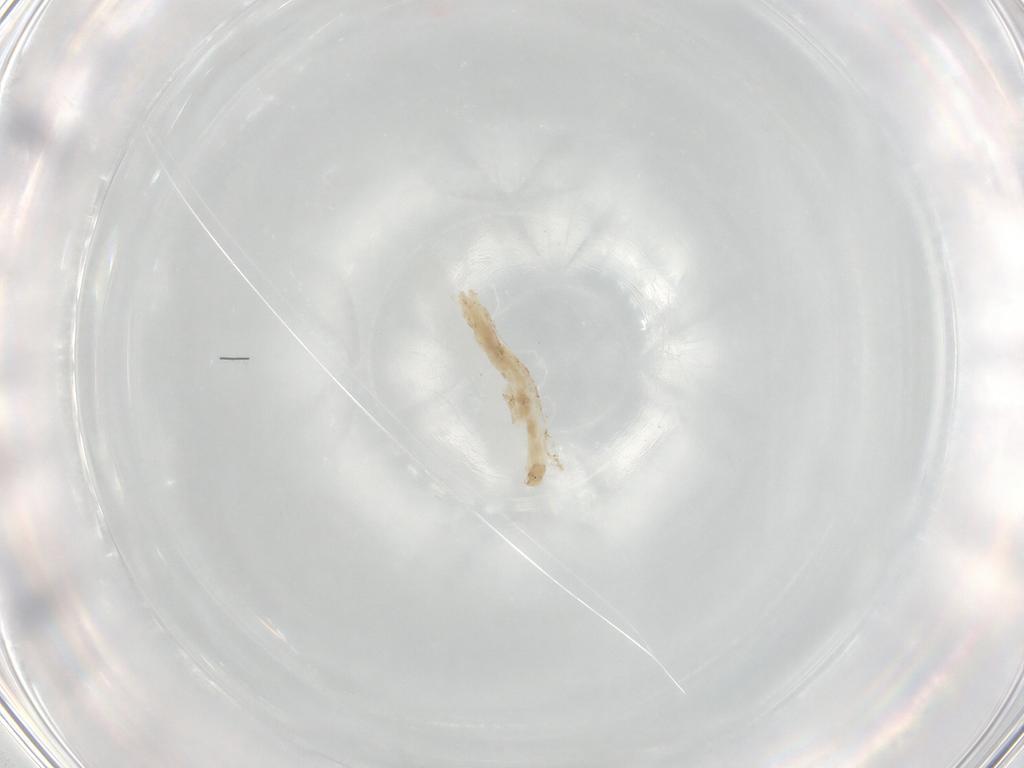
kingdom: Animalia
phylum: Arthropoda
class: Insecta
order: Diptera
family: Chironomidae
